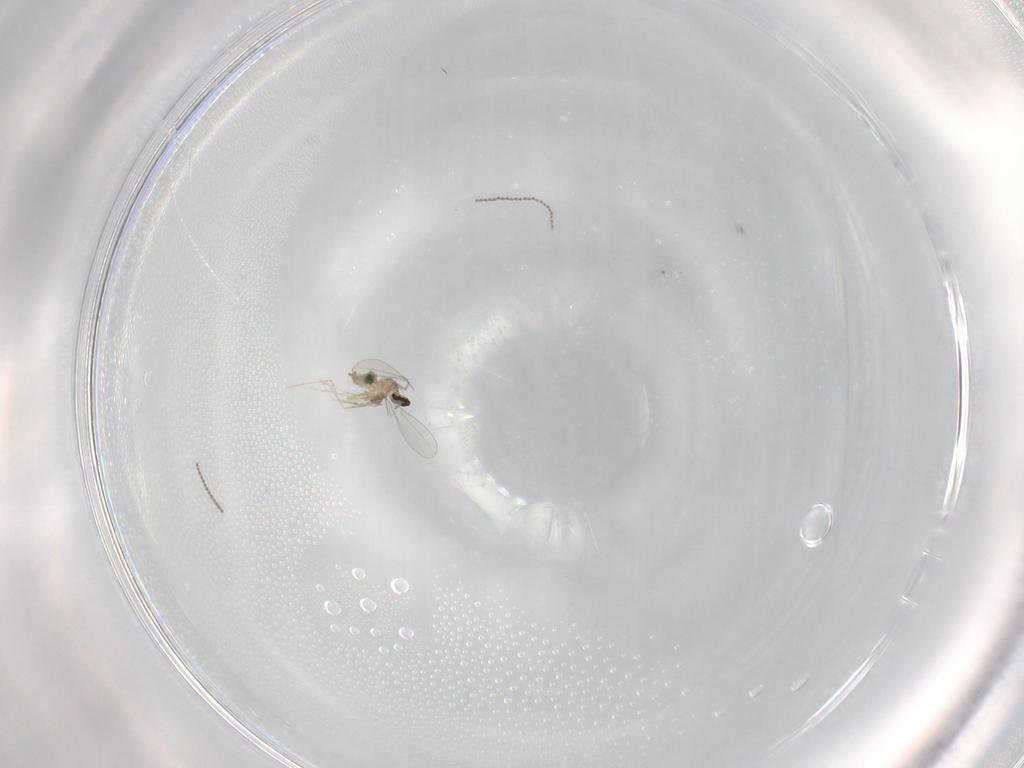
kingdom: Animalia
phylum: Arthropoda
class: Insecta
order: Diptera
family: Cecidomyiidae
